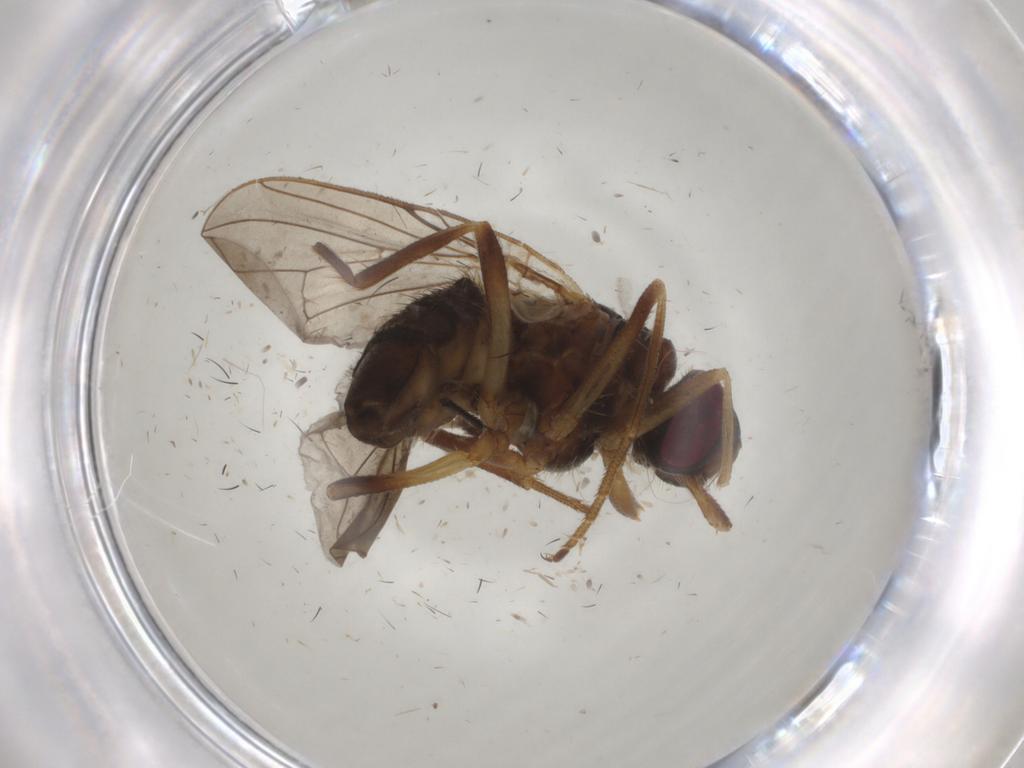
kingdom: Animalia
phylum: Arthropoda
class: Insecta
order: Diptera
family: Glossinidae
